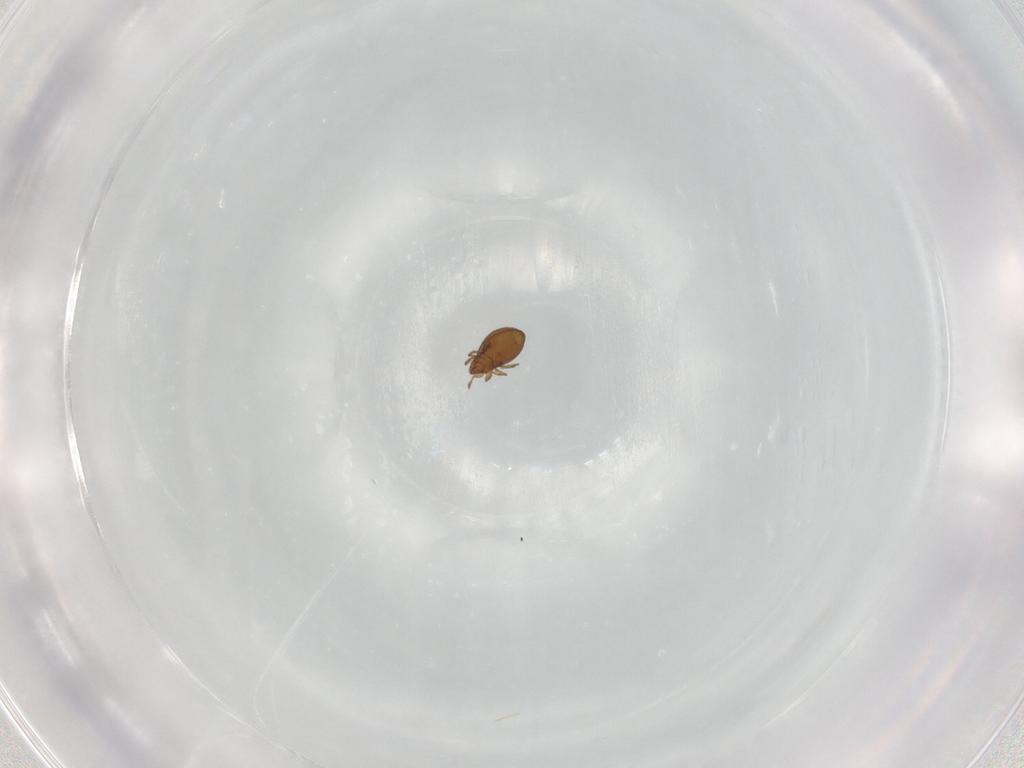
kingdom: Animalia
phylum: Arthropoda
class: Arachnida
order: Sarcoptiformes
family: Oribatulidae
